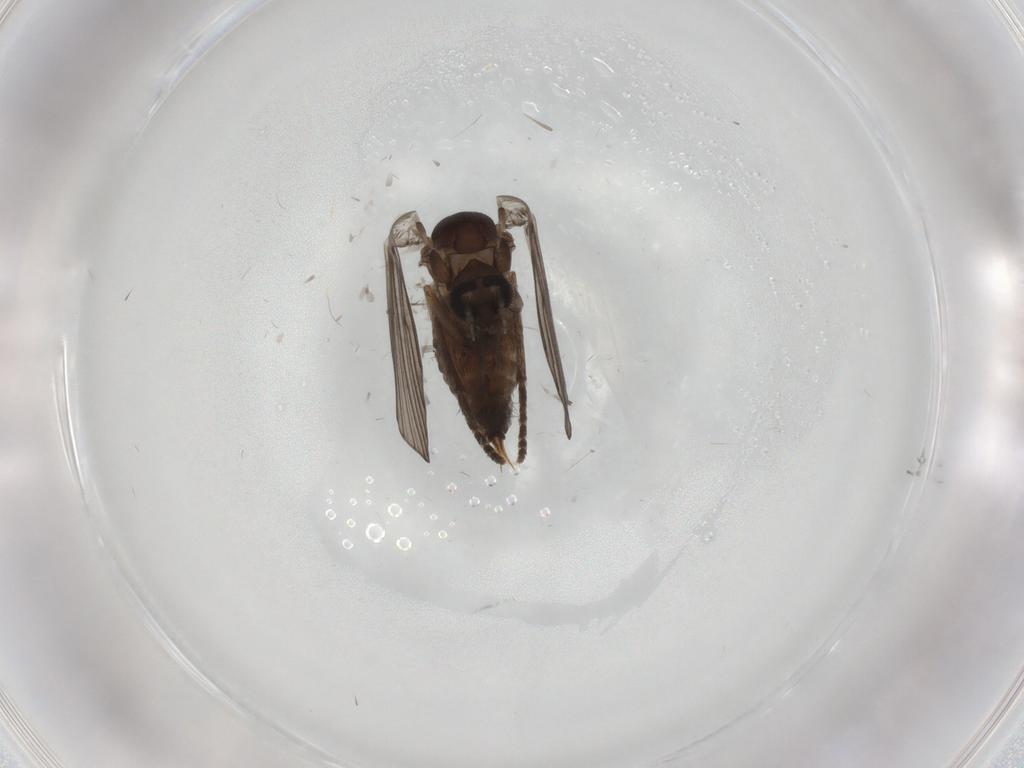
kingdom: Animalia
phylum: Arthropoda
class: Insecta
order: Diptera
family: Psychodidae
